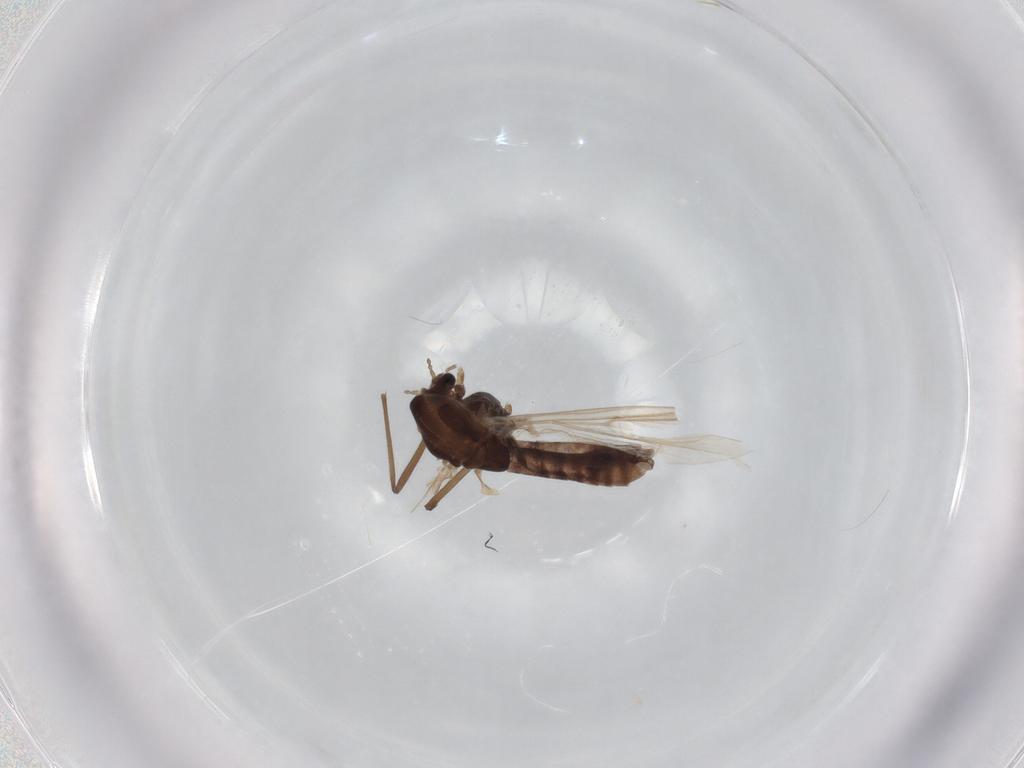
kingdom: Animalia
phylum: Arthropoda
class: Insecta
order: Diptera
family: Chironomidae
